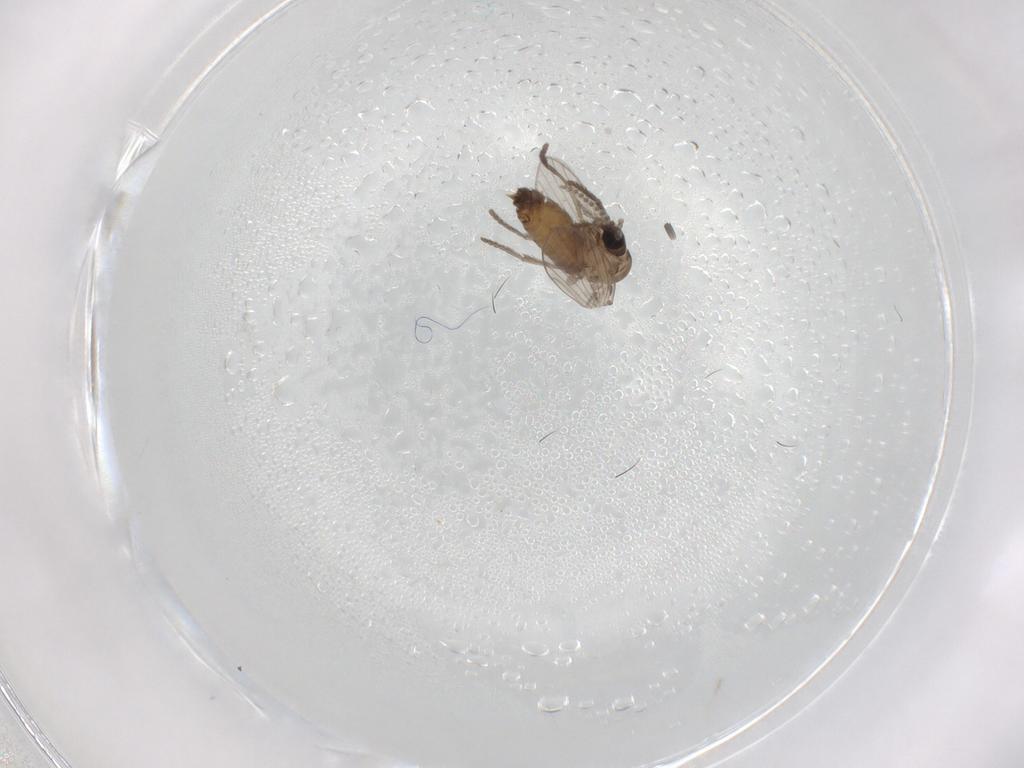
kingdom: Animalia
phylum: Arthropoda
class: Insecta
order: Diptera
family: Psychodidae
